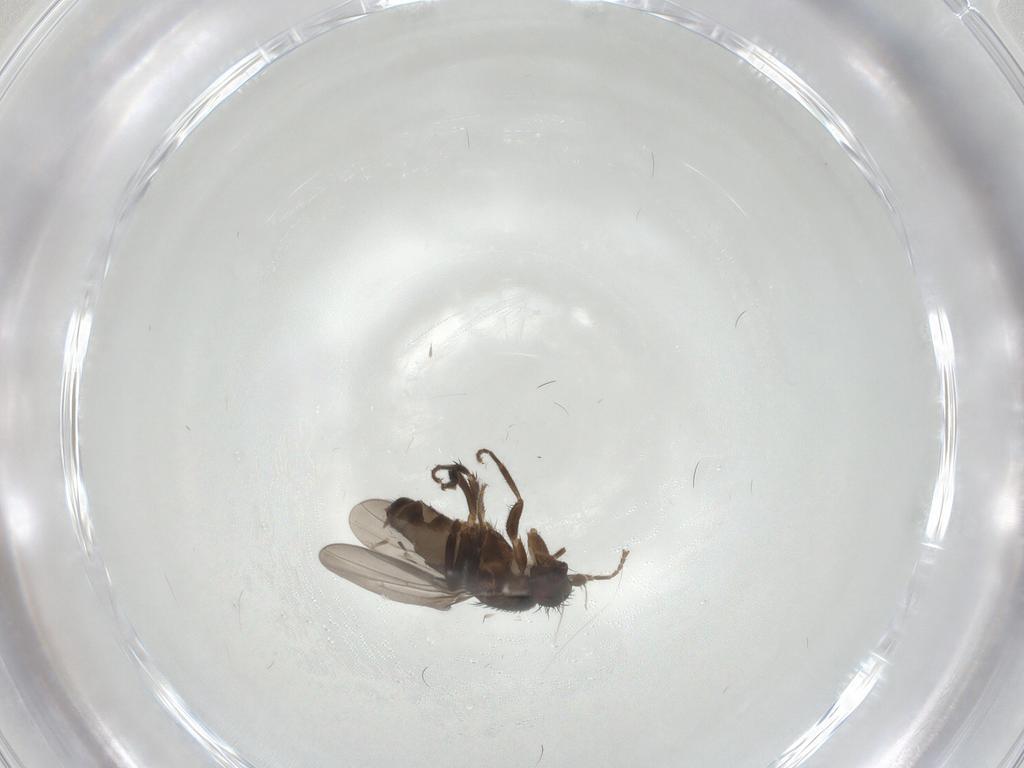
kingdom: Animalia
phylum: Arthropoda
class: Insecta
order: Diptera
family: Sphaeroceridae
